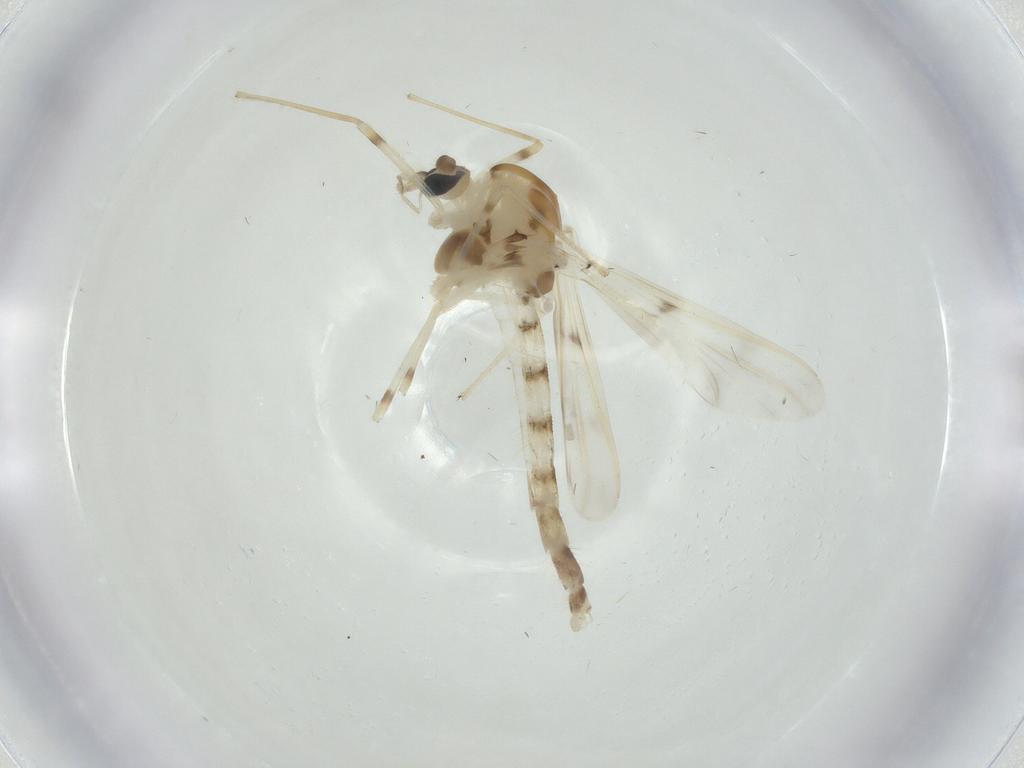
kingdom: Animalia
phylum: Arthropoda
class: Insecta
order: Diptera
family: Chironomidae
